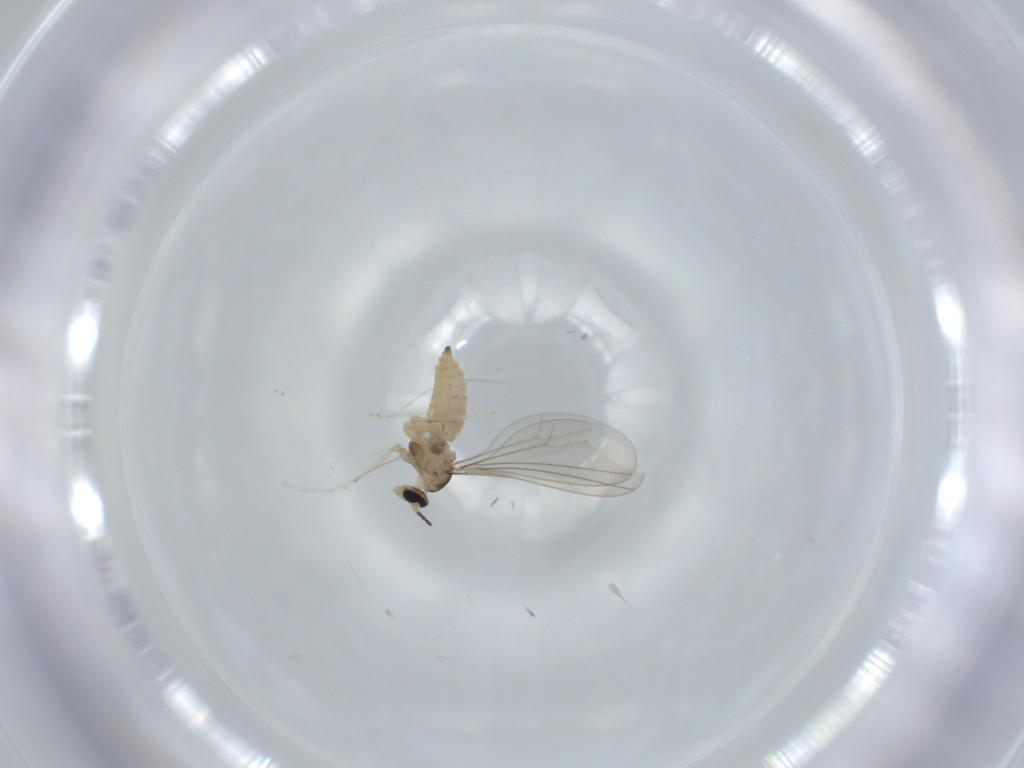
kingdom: Animalia
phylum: Arthropoda
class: Insecta
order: Diptera
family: Cecidomyiidae
